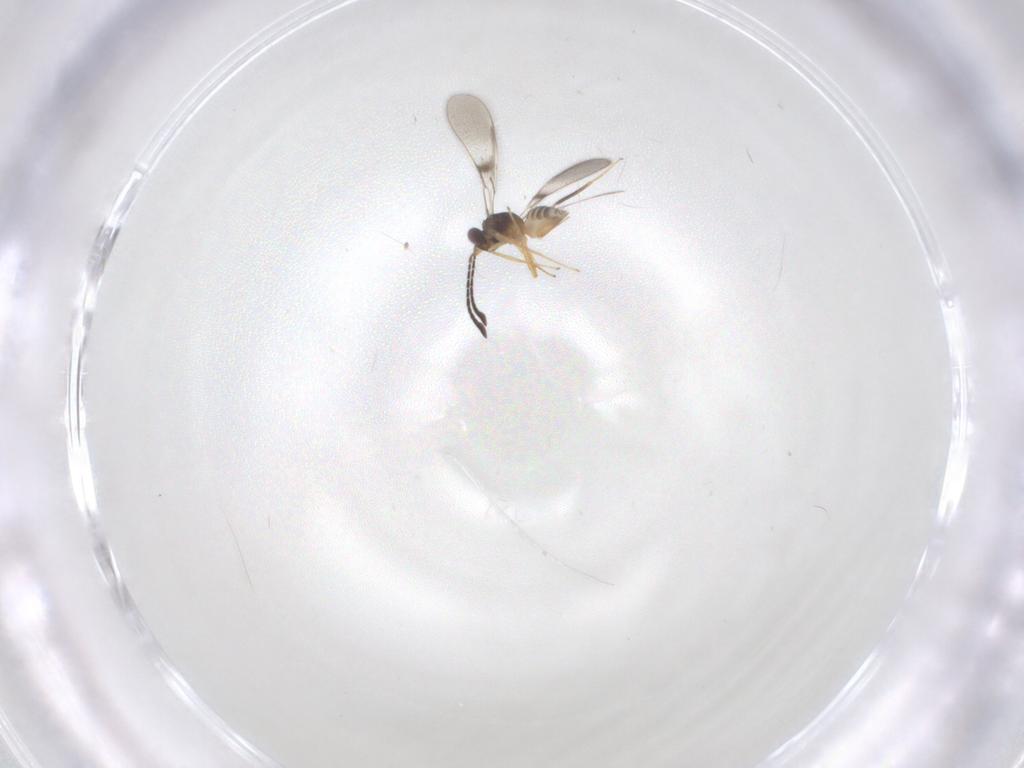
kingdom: Animalia
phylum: Arthropoda
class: Insecta
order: Hymenoptera
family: Mymaridae
